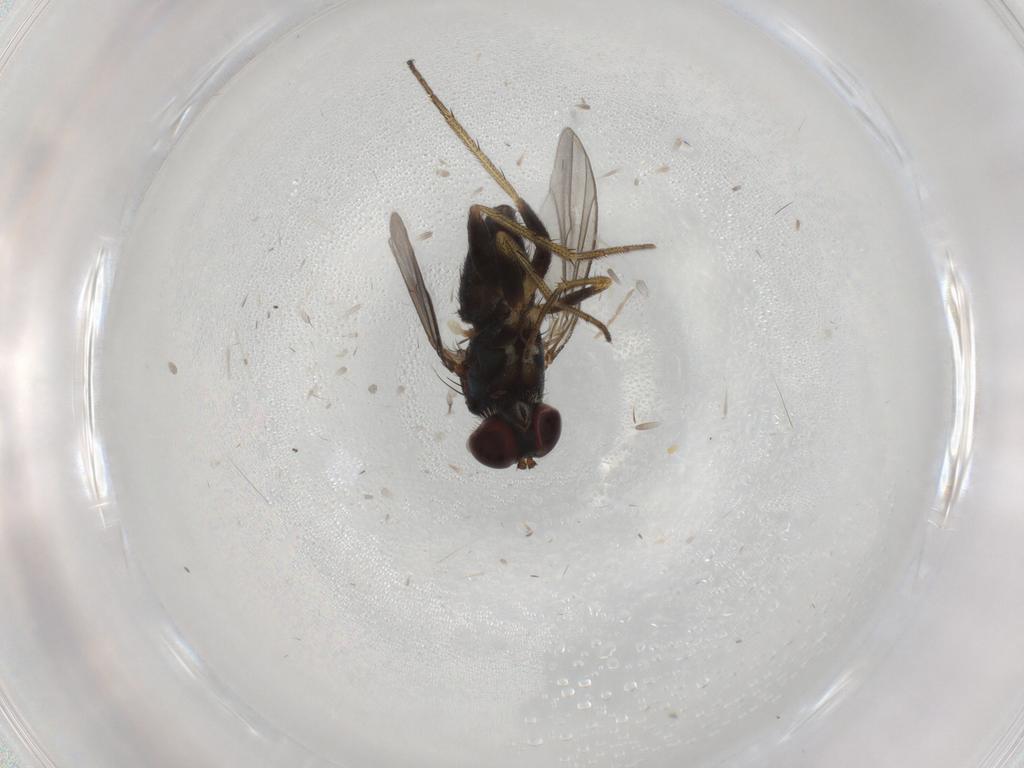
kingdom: Animalia
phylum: Arthropoda
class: Insecta
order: Diptera
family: Dolichopodidae
